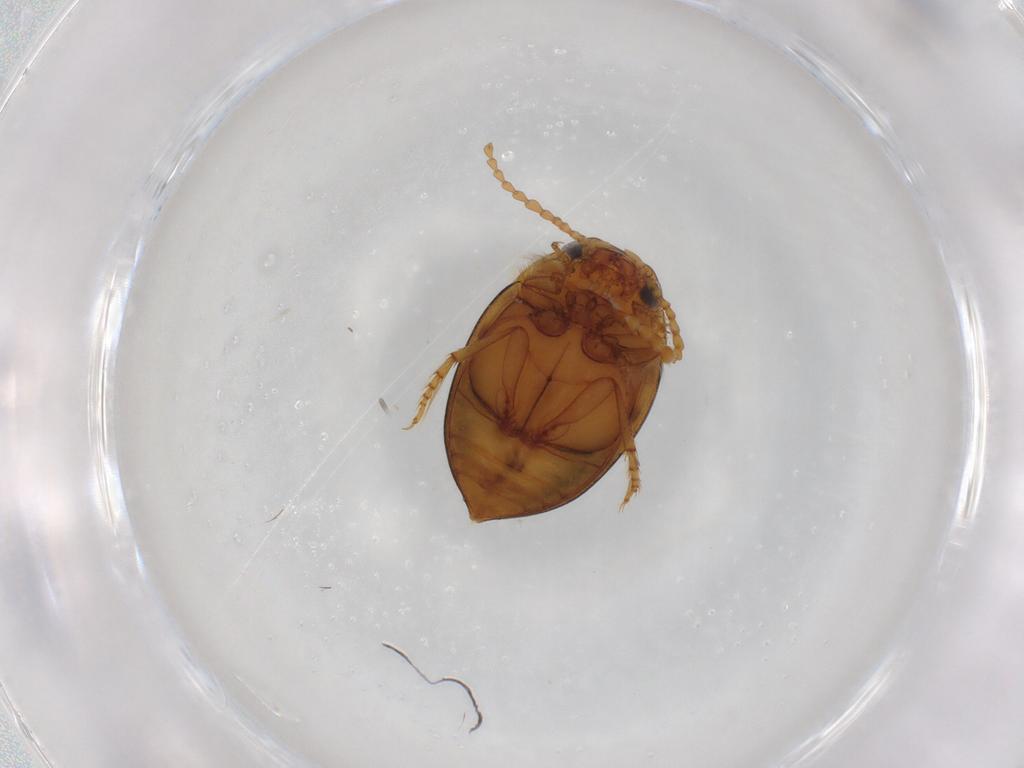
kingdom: Animalia
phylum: Arthropoda
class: Insecta
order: Coleoptera
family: Dytiscidae
